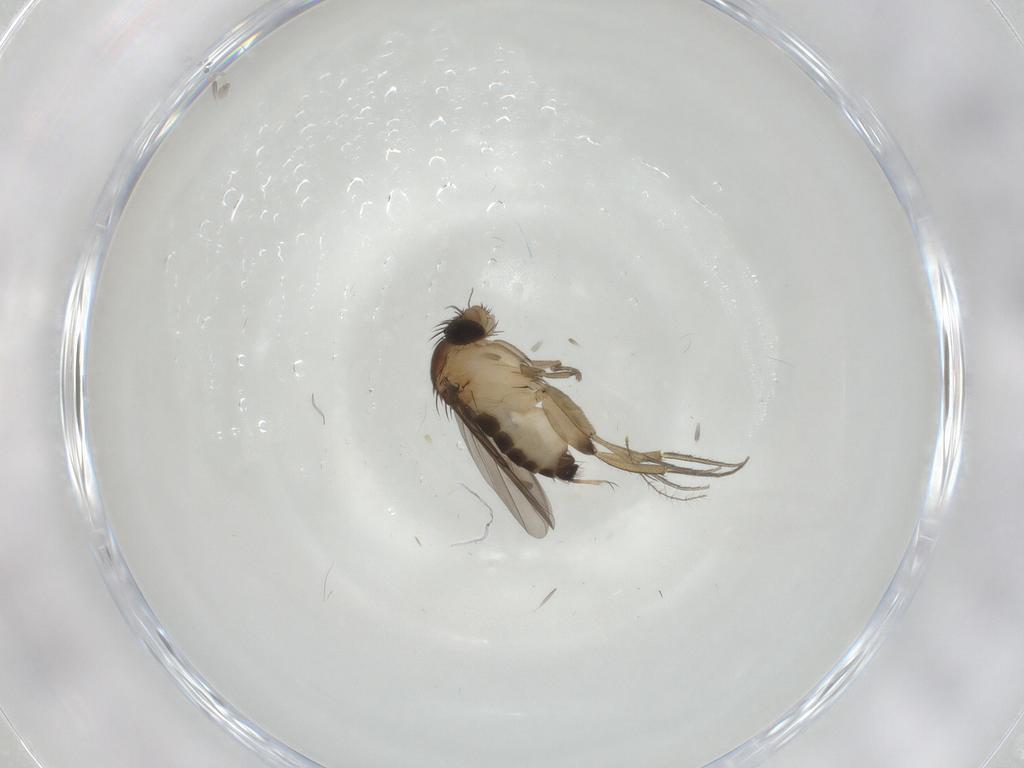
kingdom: Animalia
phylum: Arthropoda
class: Insecta
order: Diptera
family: Phoridae
